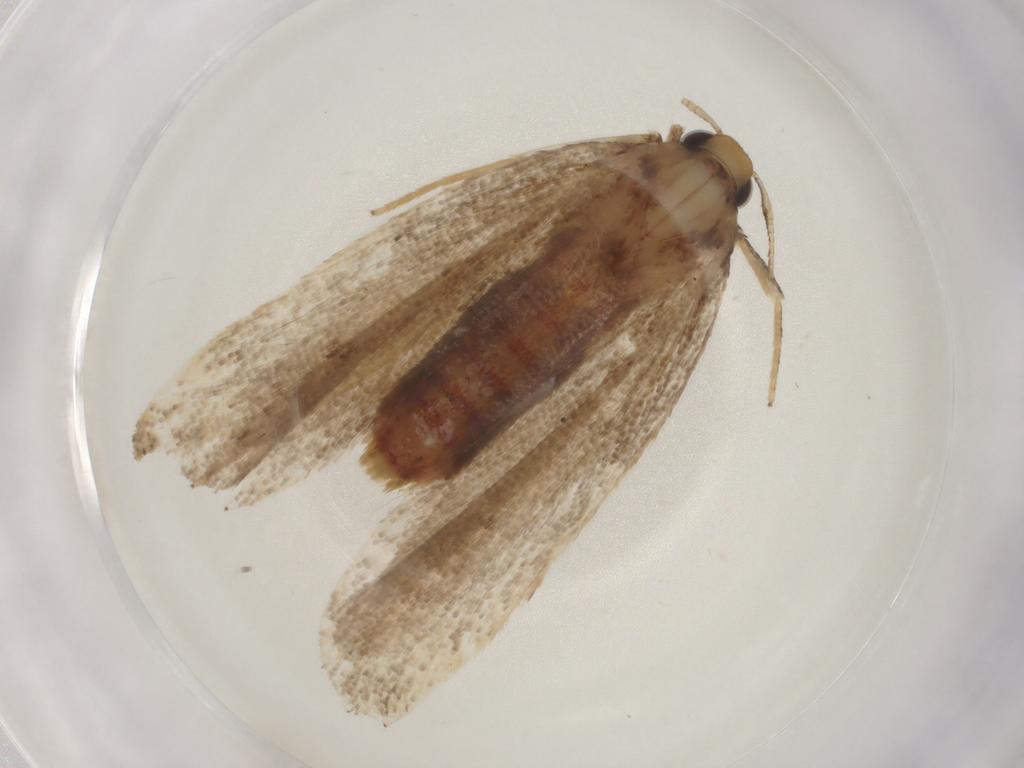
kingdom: Animalia
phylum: Arthropoda
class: Insecta
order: Lepidoptera
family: Lecithoceridae
